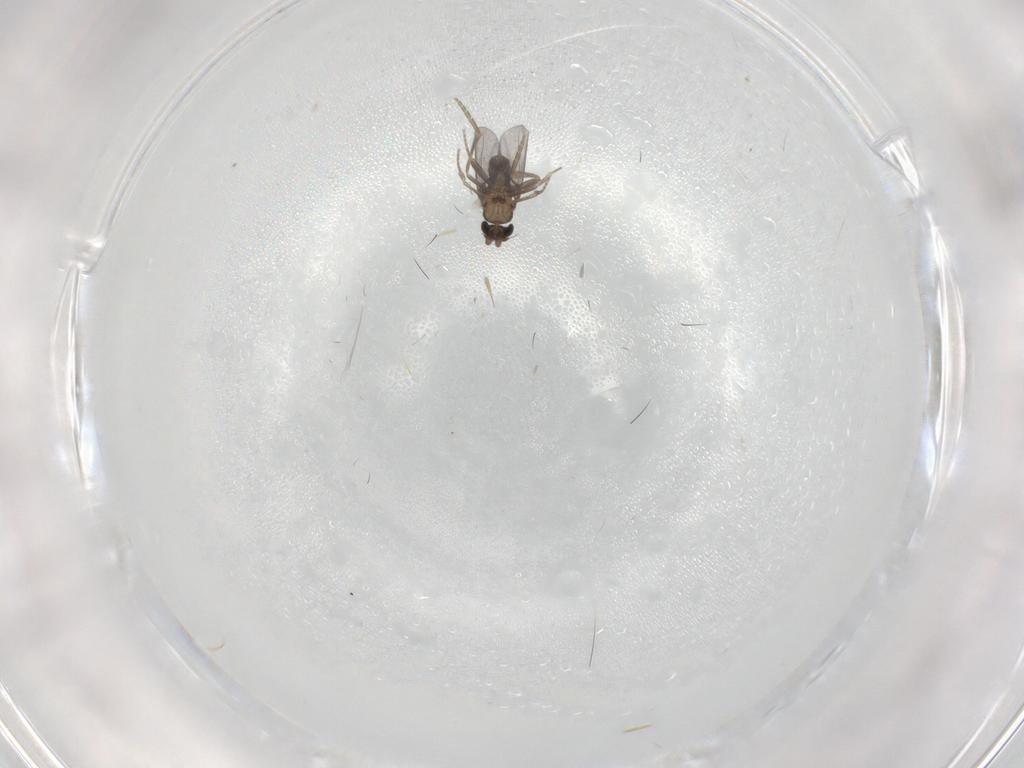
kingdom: Animalia
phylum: Arthropoda
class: Insecta
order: Diptera
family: Cecidomyiidae
